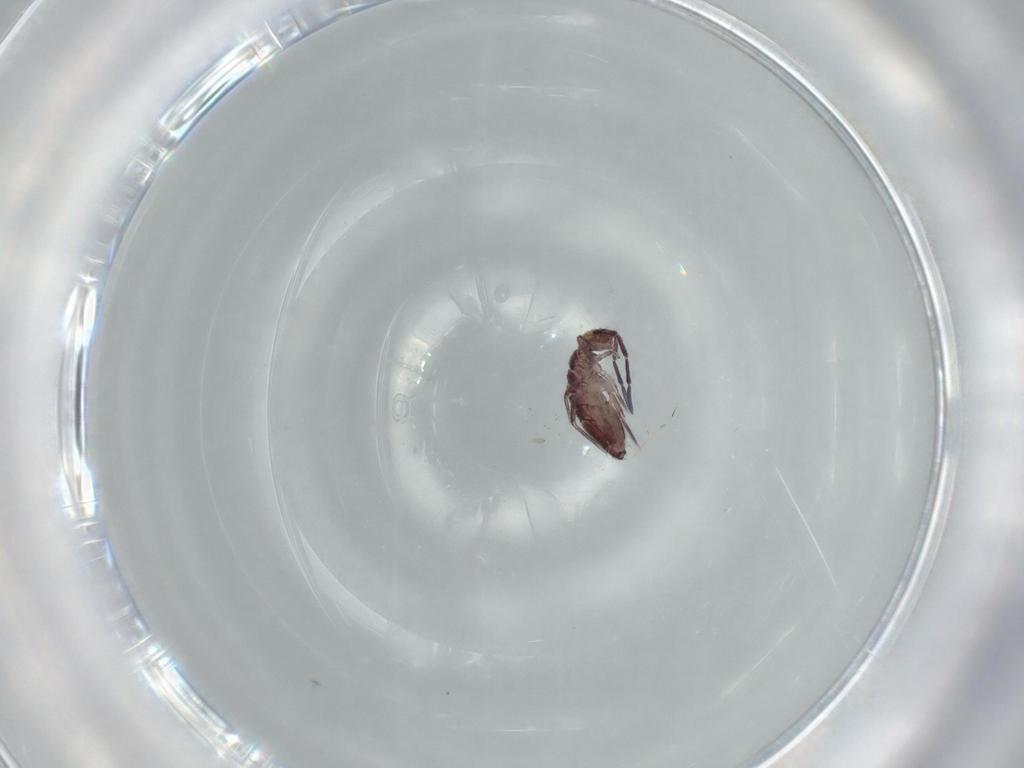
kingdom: Animalia
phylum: Arthropoda
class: Collembola
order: Entomobryomorpha
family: Entomobryidae
